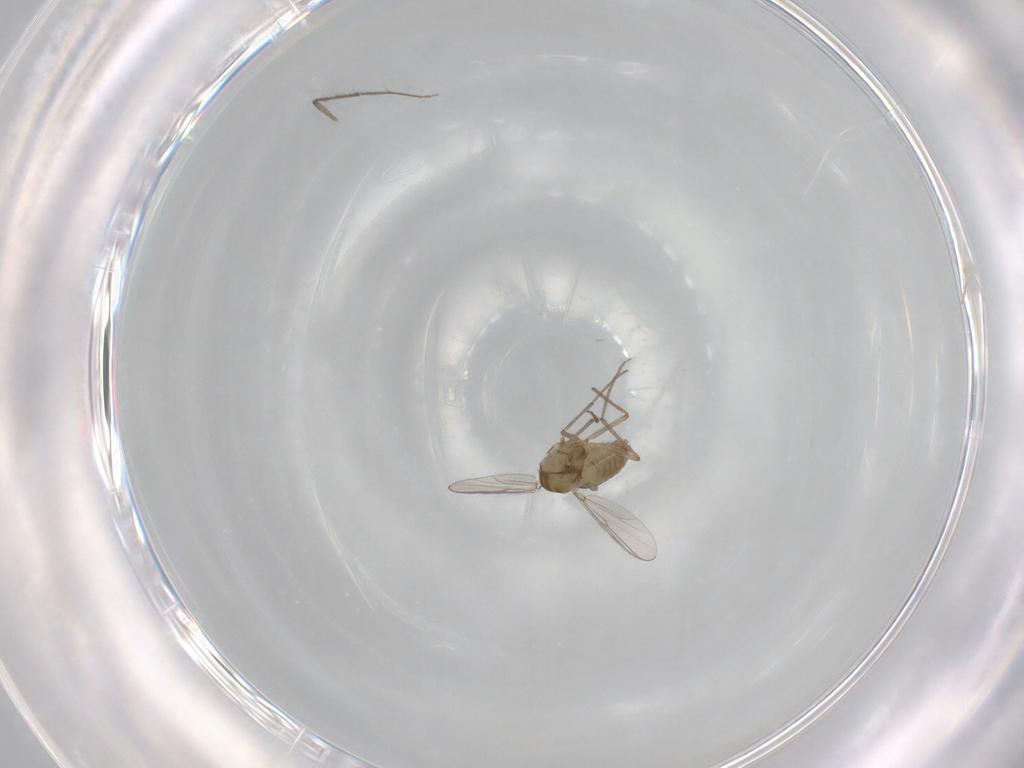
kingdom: Animalia
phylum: Arthropoda
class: Insecta
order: Diptera
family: Chironomidae
